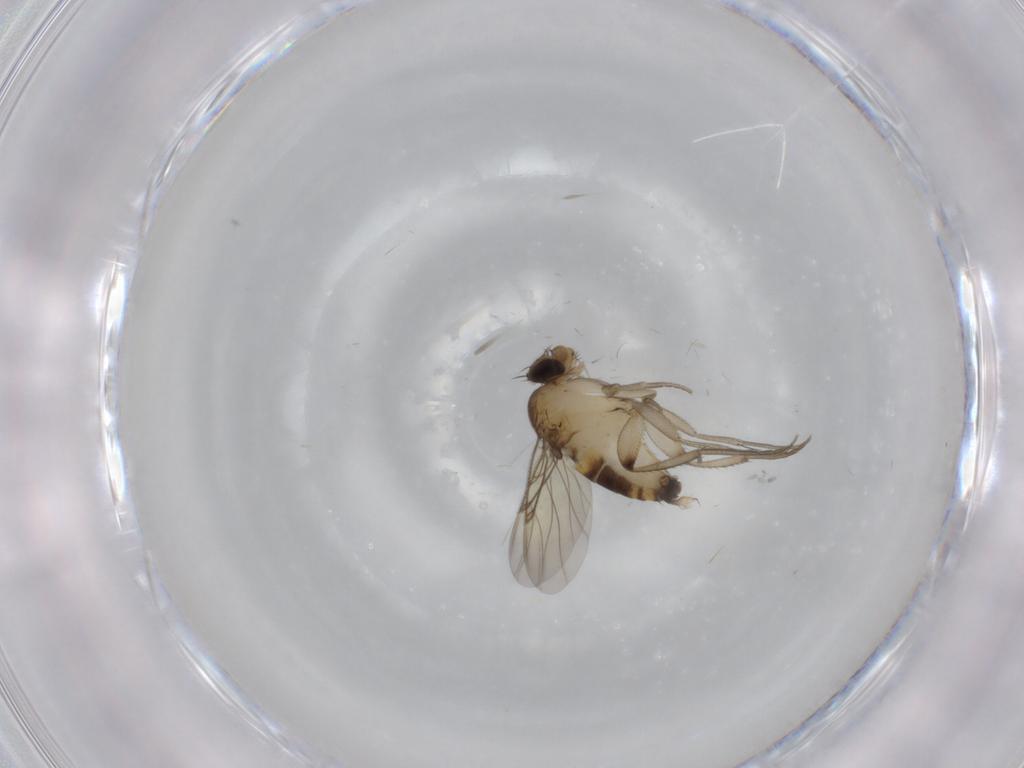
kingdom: Animalia
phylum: Arthropoda
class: Insecta
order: Diptera
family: Phoridae
